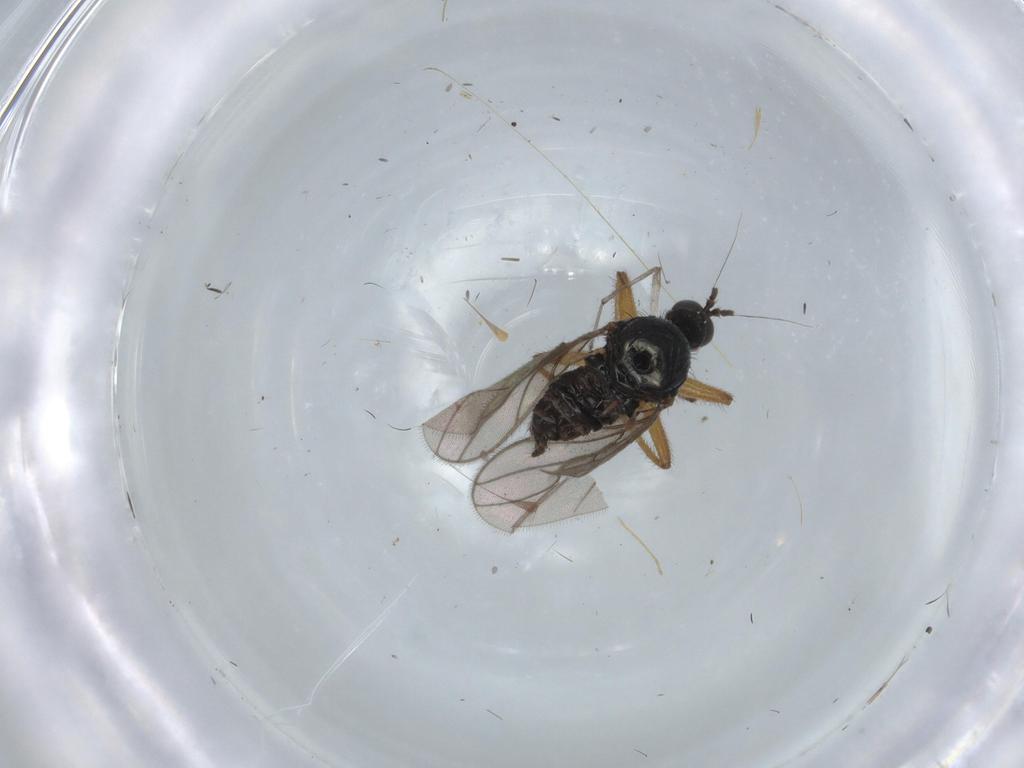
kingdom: Animalia
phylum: Arthropoda
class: Insecta
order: Diptera
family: Hybotidae
